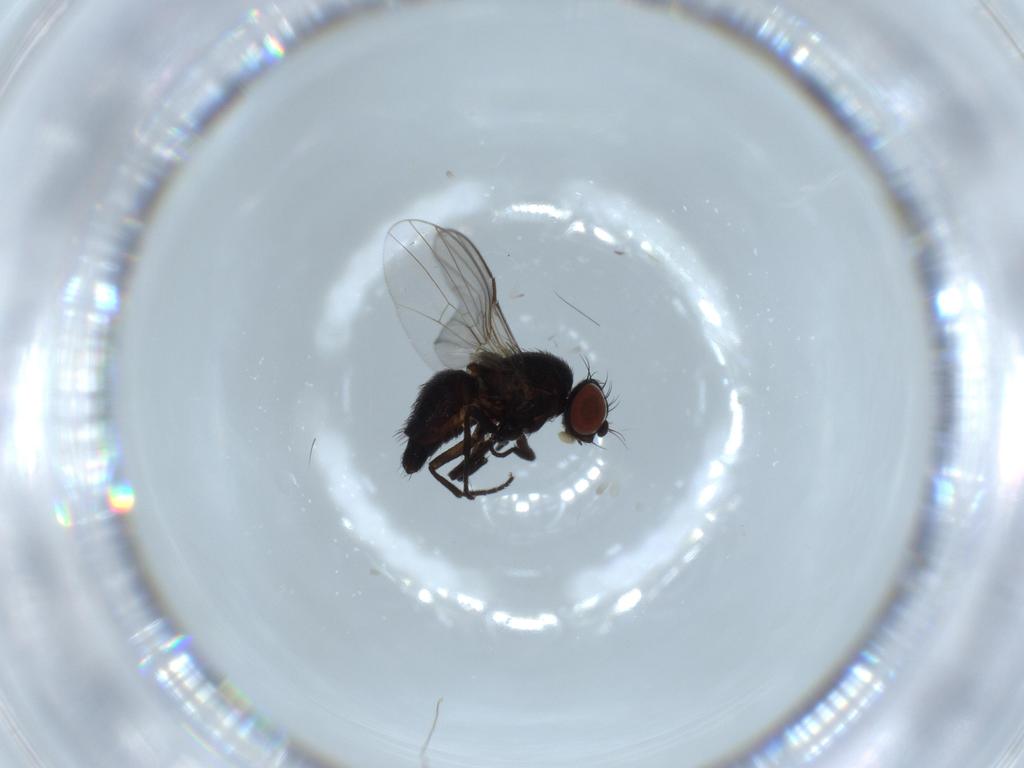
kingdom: Animalia
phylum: Arthropoda
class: Insecta
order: Diptera
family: Agromyzidae
